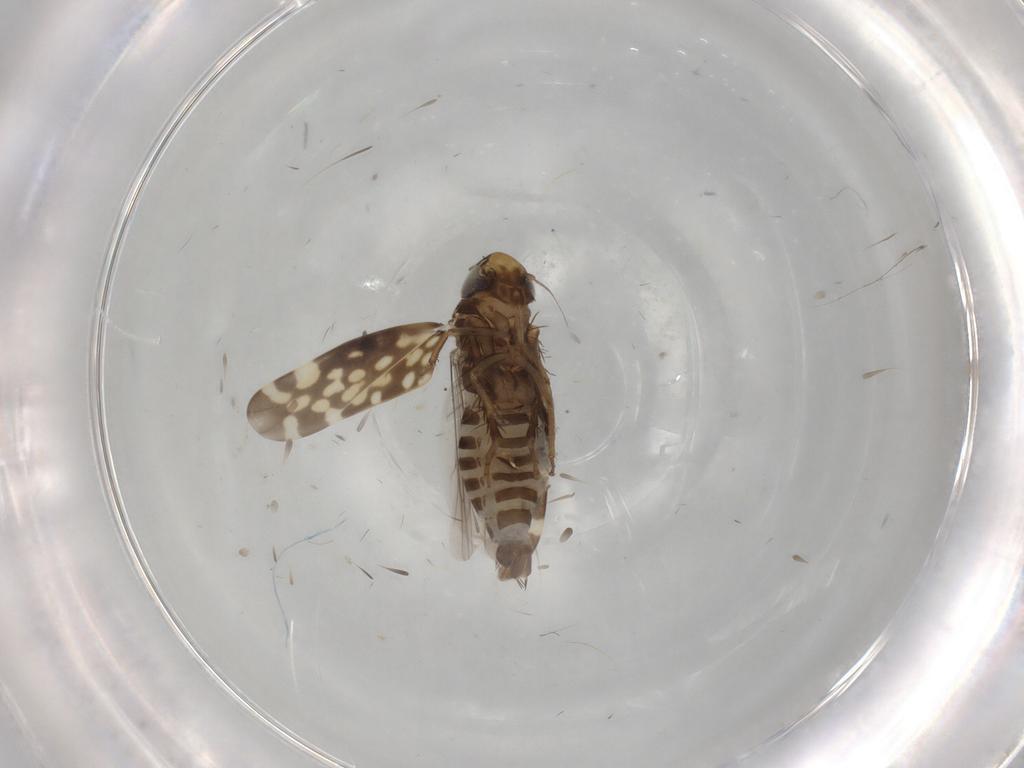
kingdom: Animalia
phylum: Arthropoda
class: Insecta
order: Hemiptera
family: Cicadellidae
